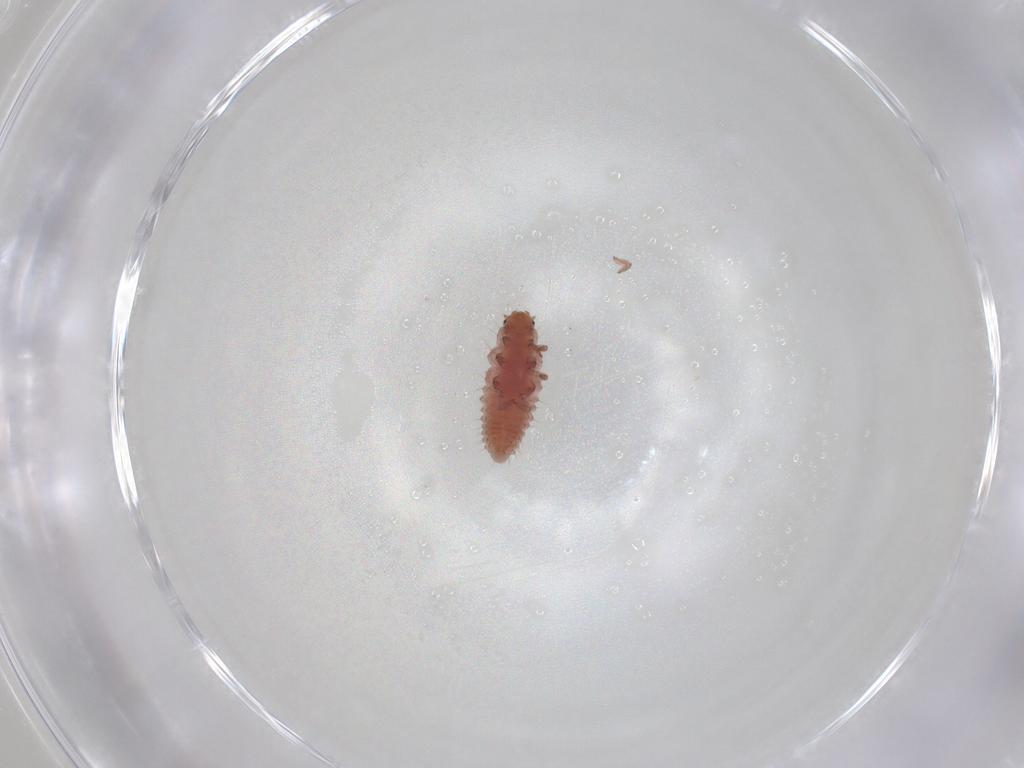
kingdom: Animalia
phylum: Arthropoda
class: Insecta
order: Coleoptera
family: Coccinellidae
